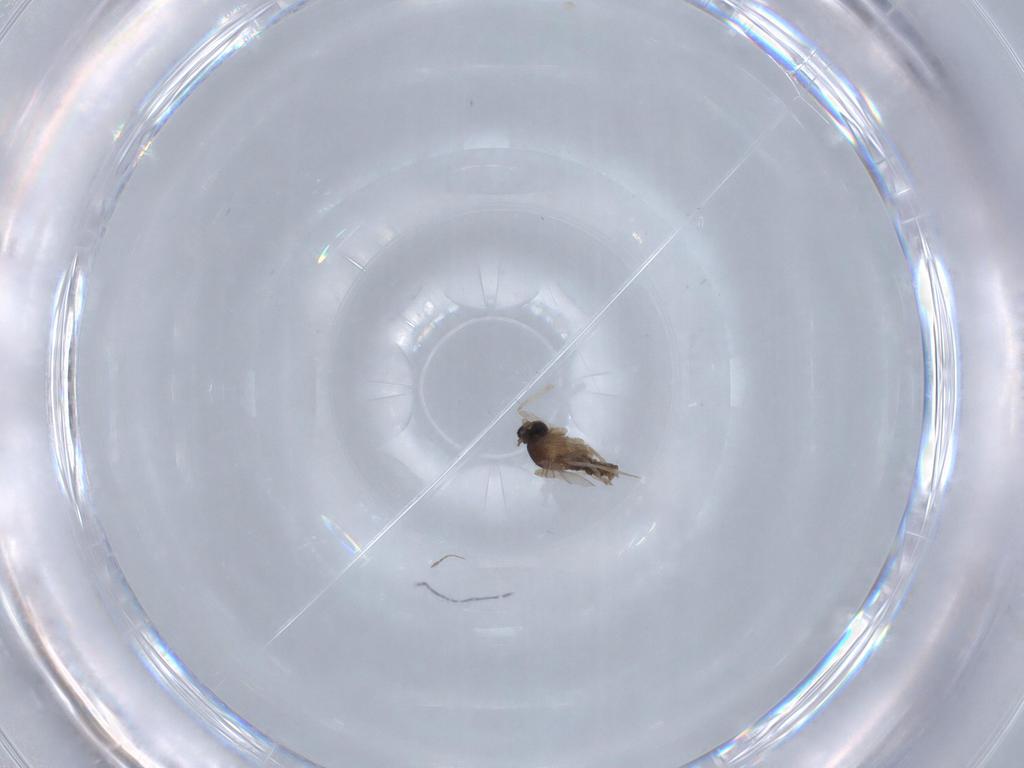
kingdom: Animalia
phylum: Arthropoda
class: Insecta
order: Diptera
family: Cecidomyiidae
